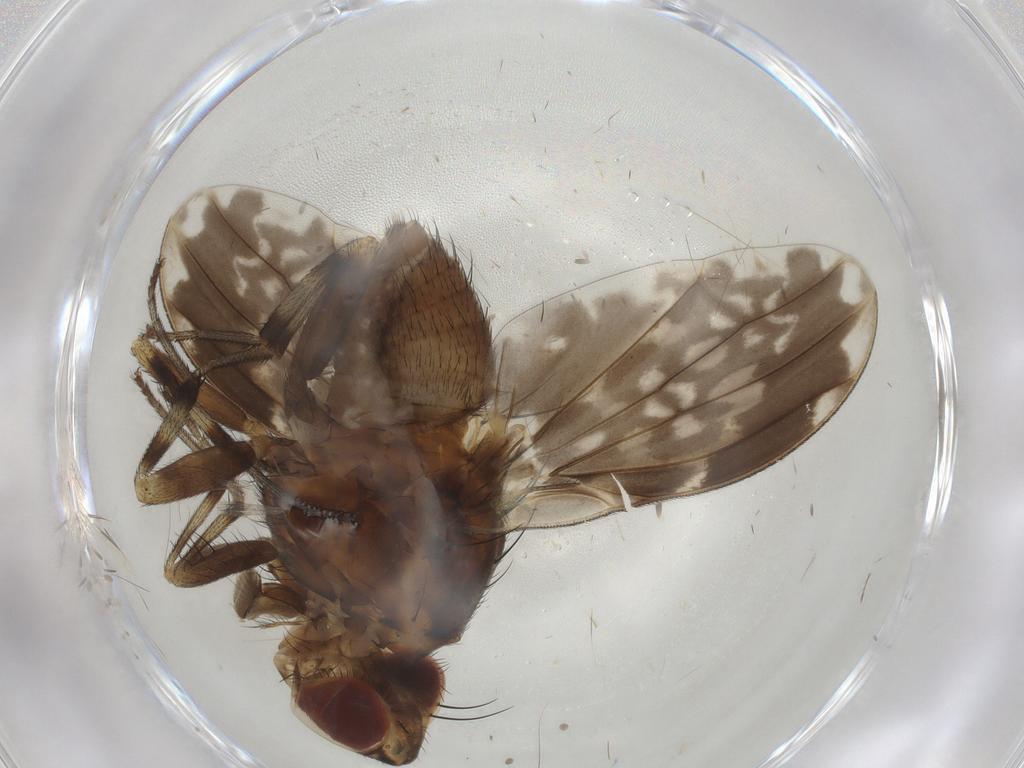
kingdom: Animalia
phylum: Arthropoda
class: Insecta
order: Diptera
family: Lauxaniidae
